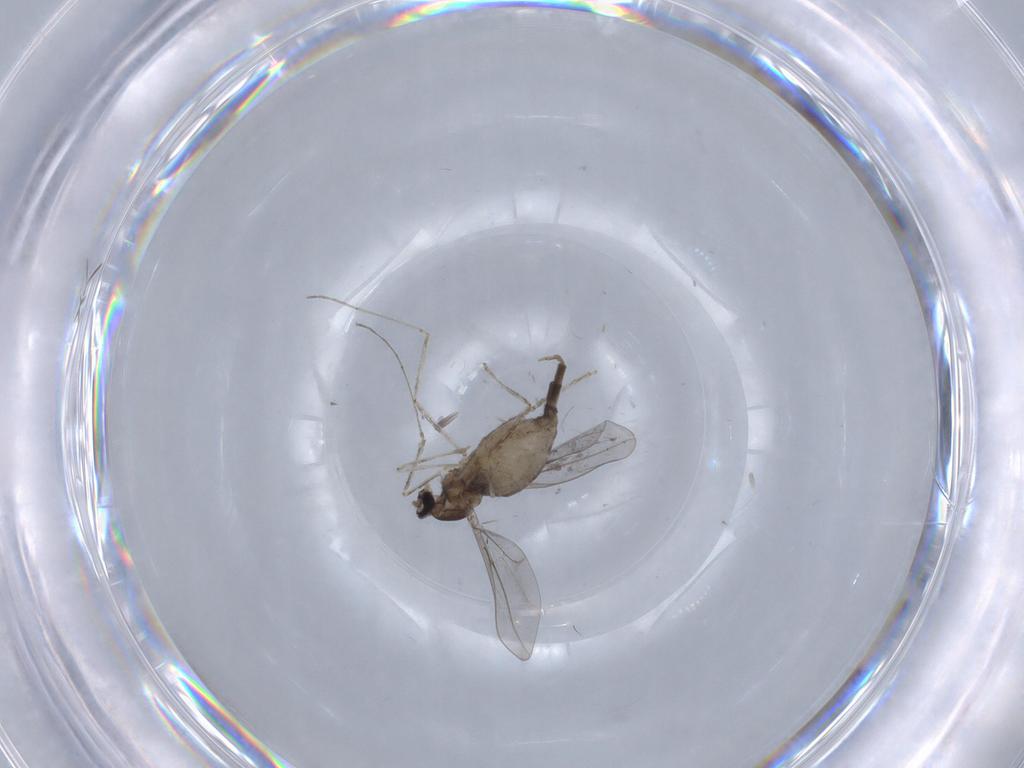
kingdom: Animalia
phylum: Arthropoda
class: Insecta
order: Diptera
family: Cecidomyiidae
